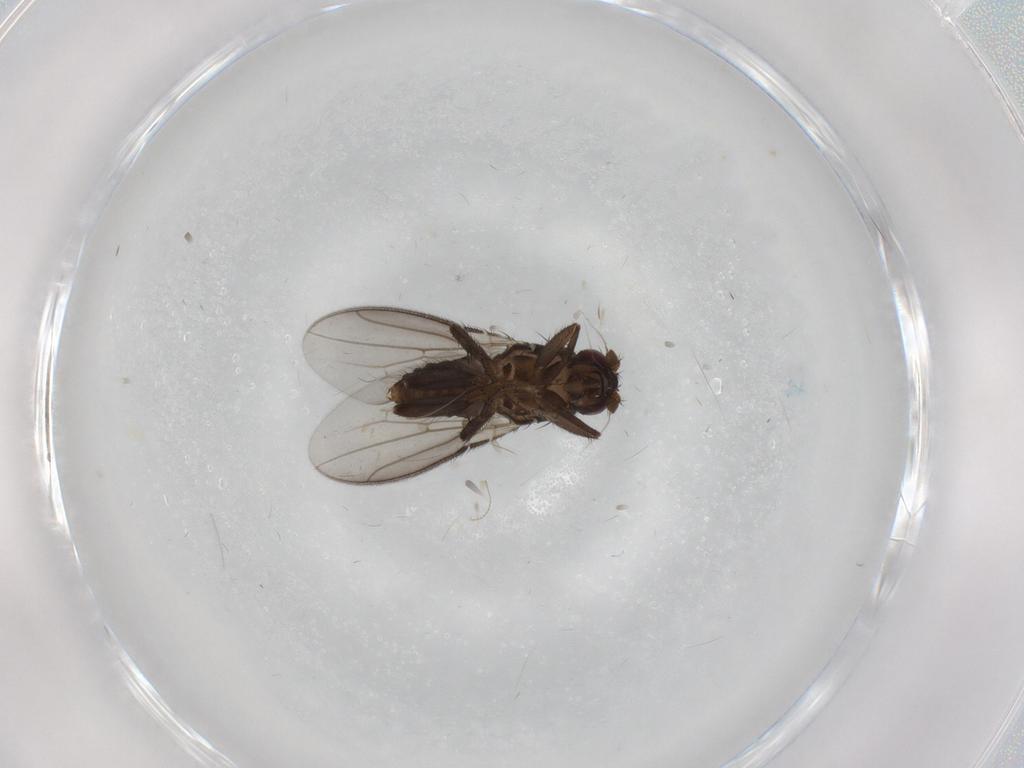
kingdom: Animalia
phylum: Arthropoda
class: Insecta
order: Diptera
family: Sphaeroceridae
